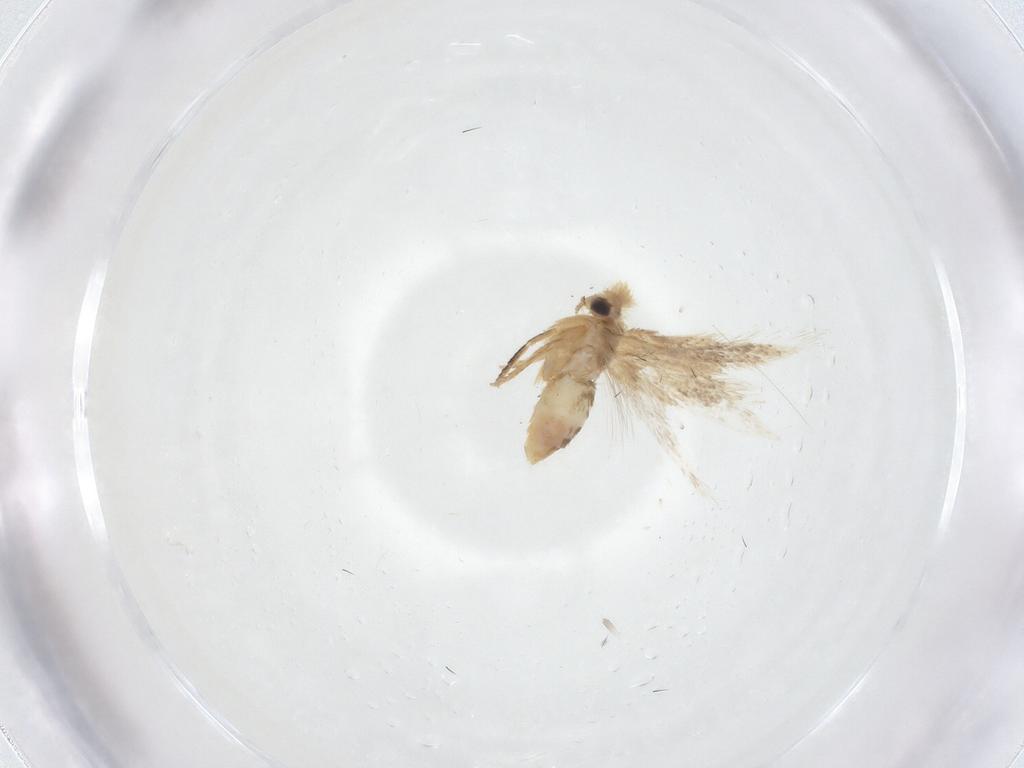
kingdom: Animalia
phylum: Arthropoda
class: Insecta
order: Lepidoptera
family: Nepticulidae
